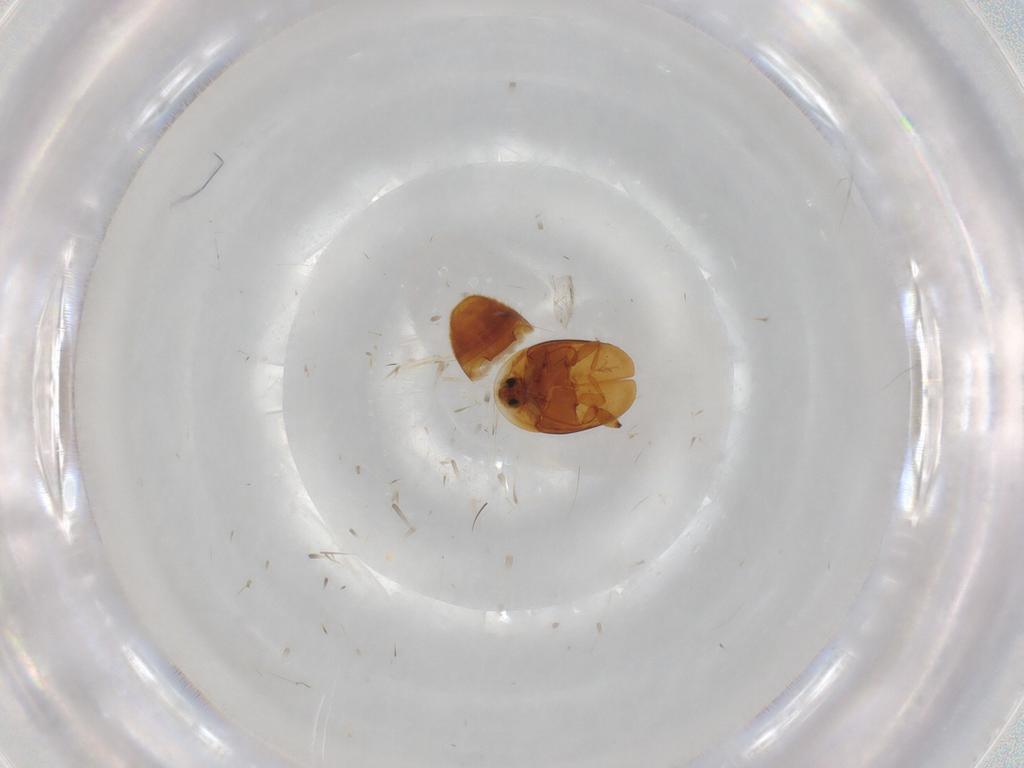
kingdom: Animalia
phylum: Arthropoda
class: Insecta
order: Coleoptera
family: Corylophidae
